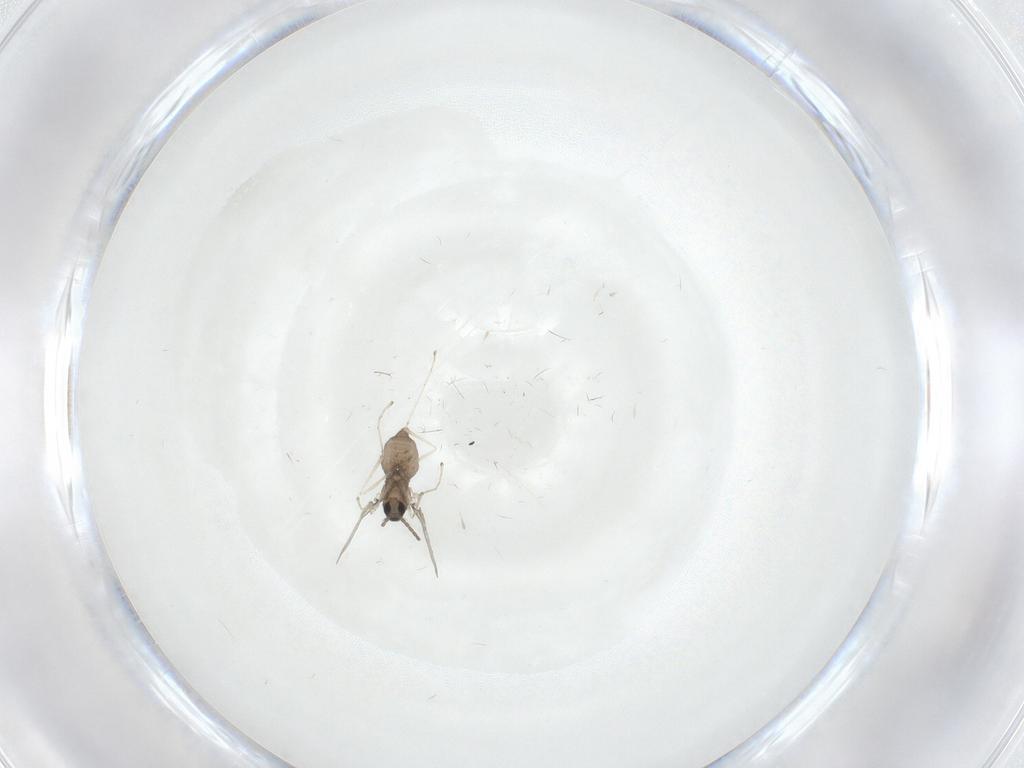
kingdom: Animalia
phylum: Arthropoda
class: Insecta
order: Diptera
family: Cecidomyiidae
